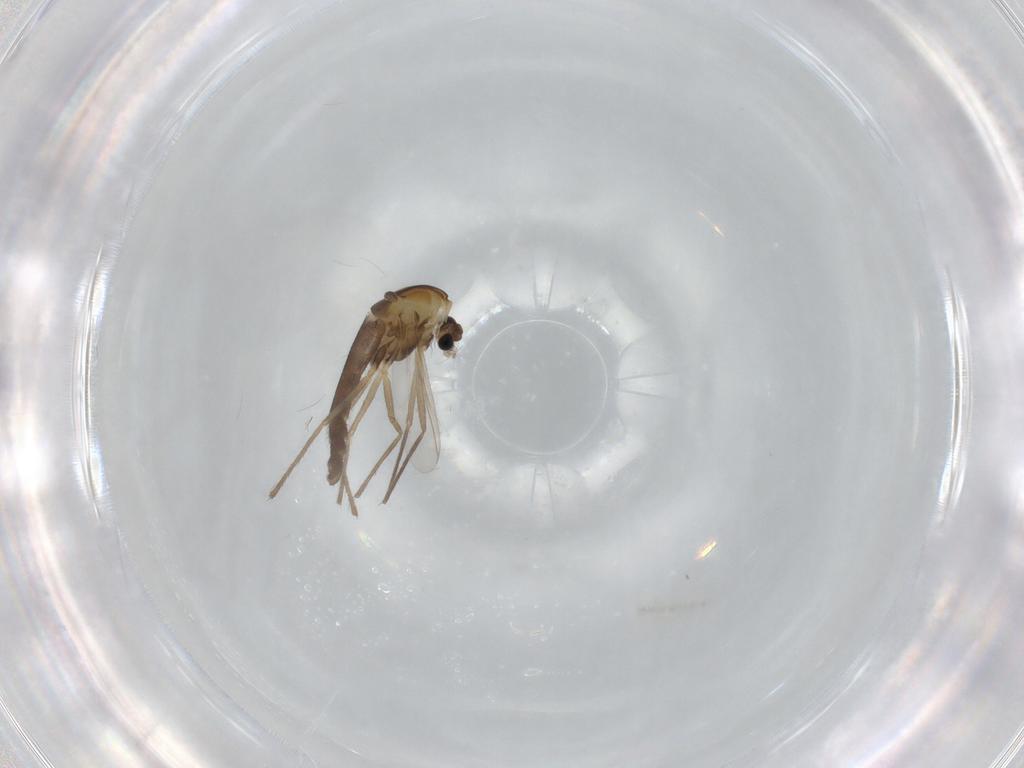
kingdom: Animalia
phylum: Arthropoda
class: Insecta
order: Diptera
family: Chironomidae
